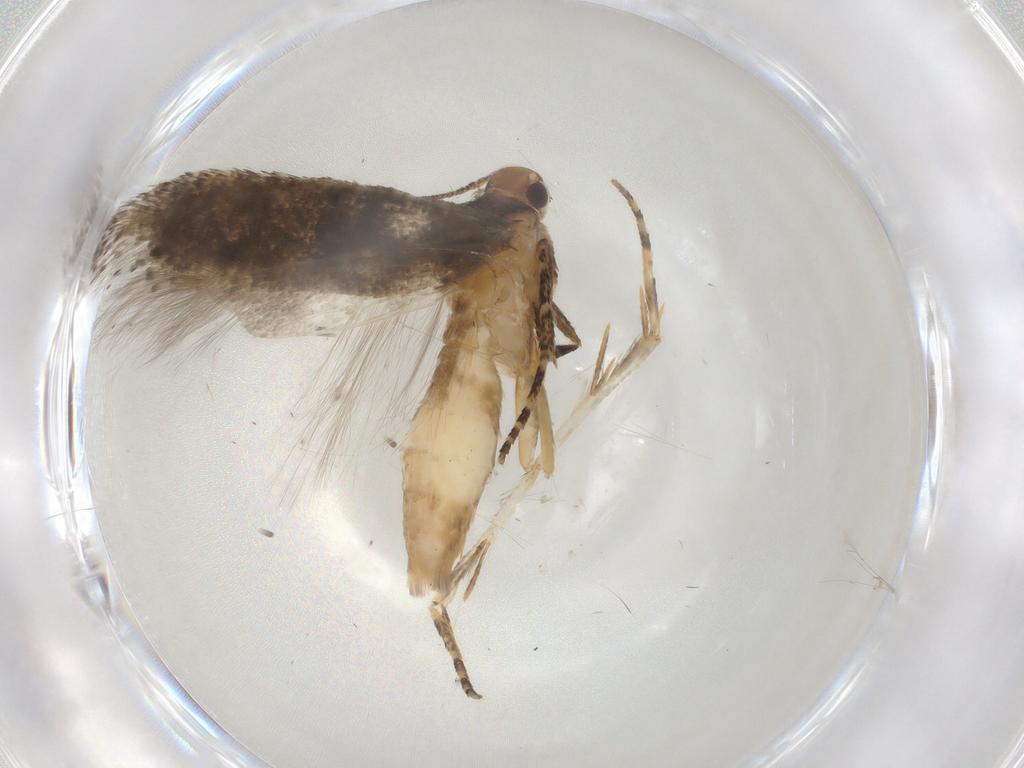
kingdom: Animalia
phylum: Arthropoda
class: Insecta
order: Lepidoptera
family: Gelechiidae
